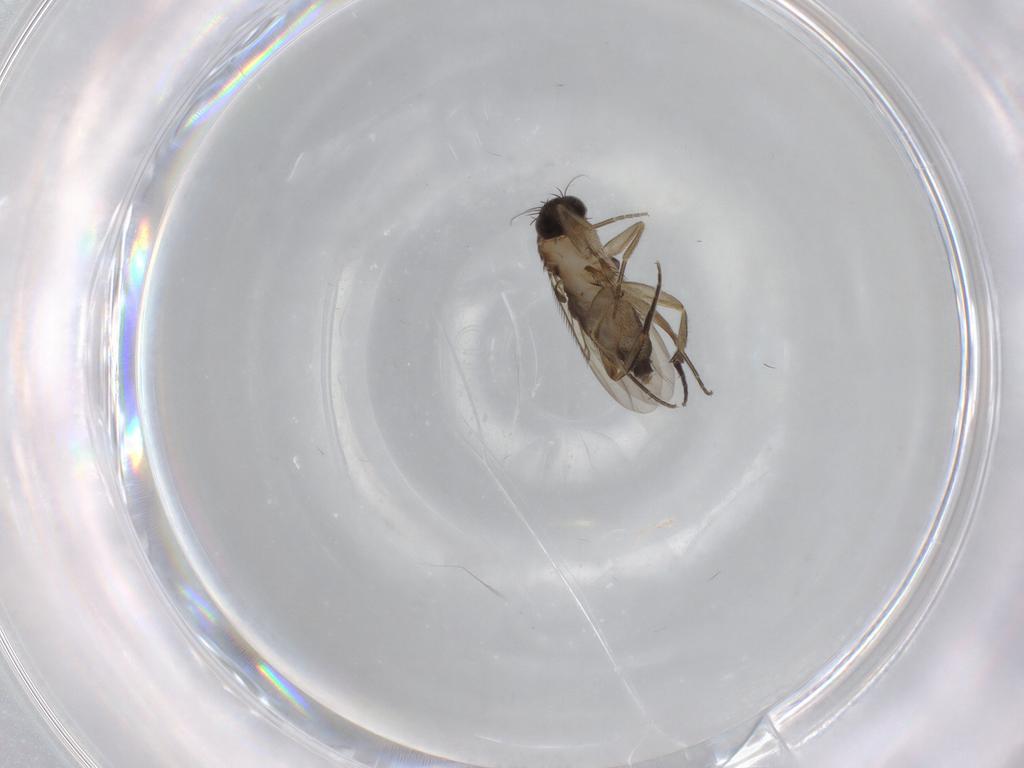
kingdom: Animalia
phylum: Arthropoda
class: Insecta
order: Diptera
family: Phoridae
